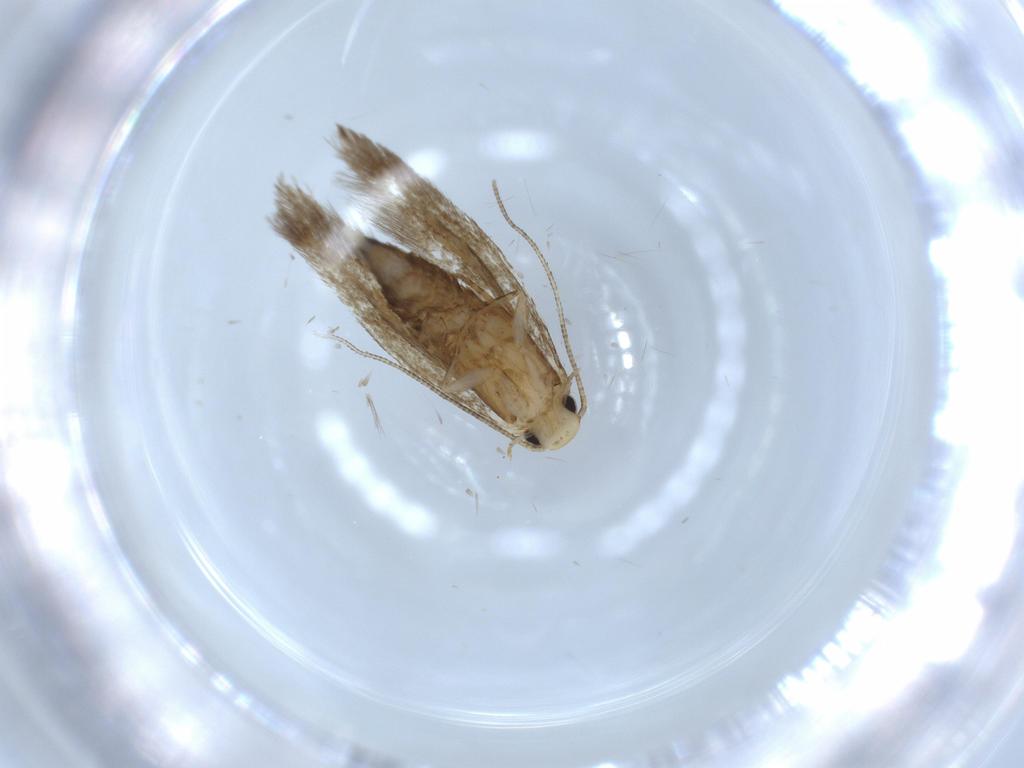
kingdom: Animalia
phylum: Arthropoda
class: Insecta
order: Lepidoptera
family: Tineidae
